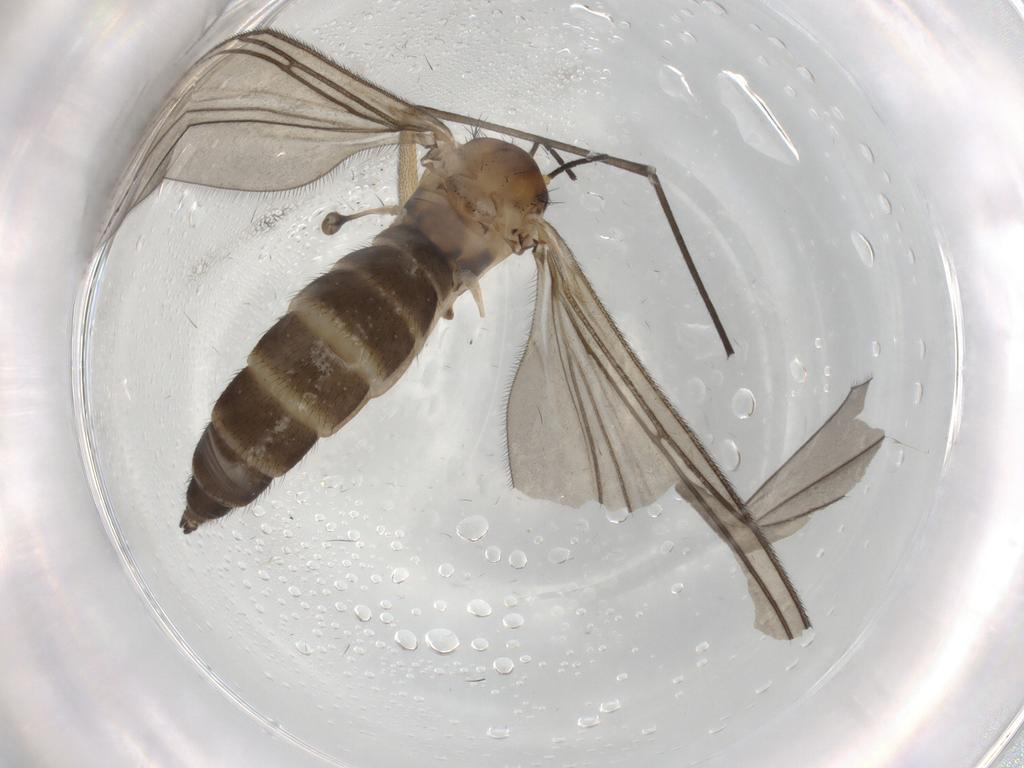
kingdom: Animalia
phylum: Arthropoda
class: Insecta
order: Diptera
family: Sciaridae
